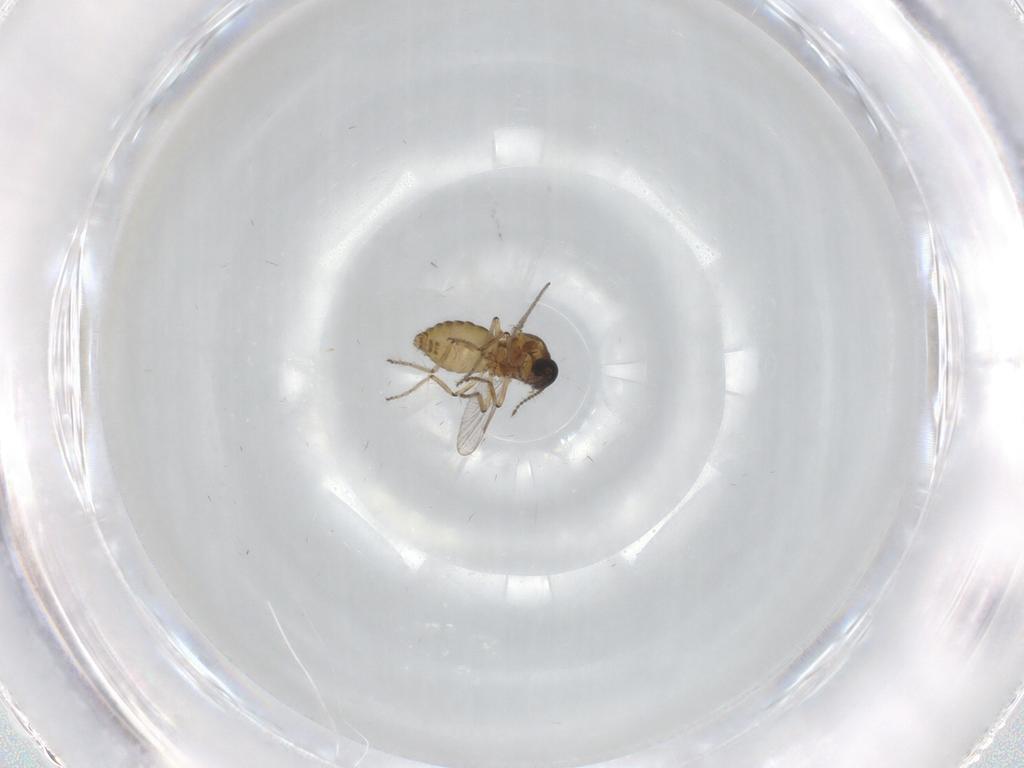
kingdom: Animalia
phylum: Arthropoda
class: Insecta
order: Diptera
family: Ceratopogonidae
